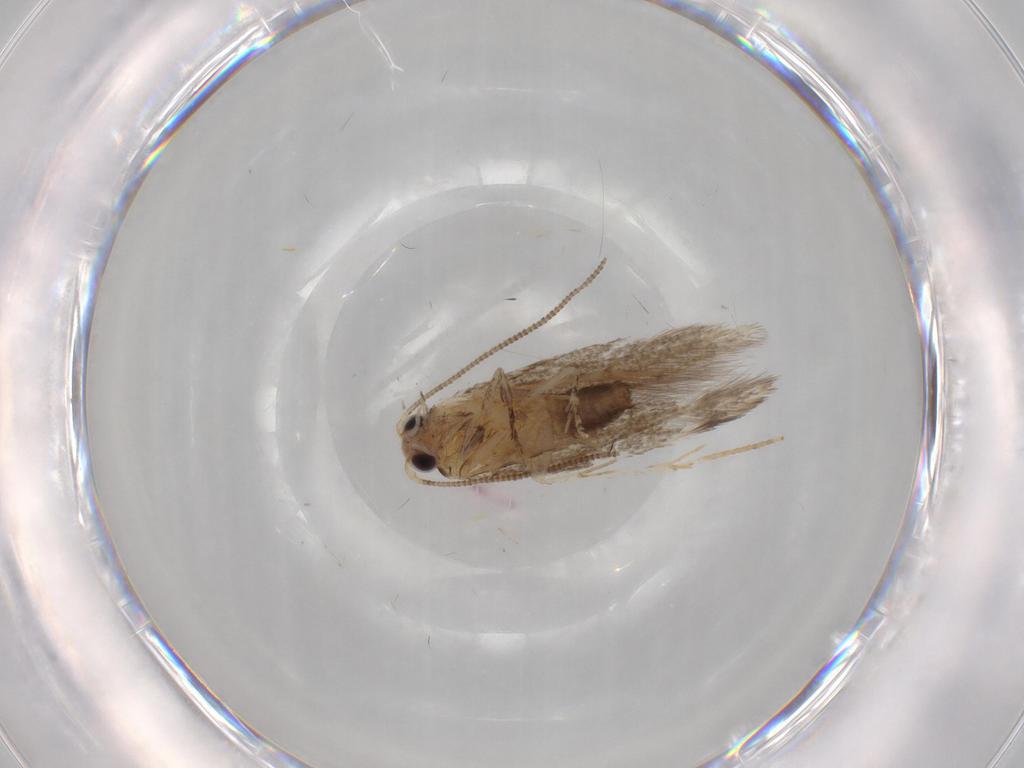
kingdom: Animalia
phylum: Arthropoda
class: Insecta
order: Lepidoptera
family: Tineidae
